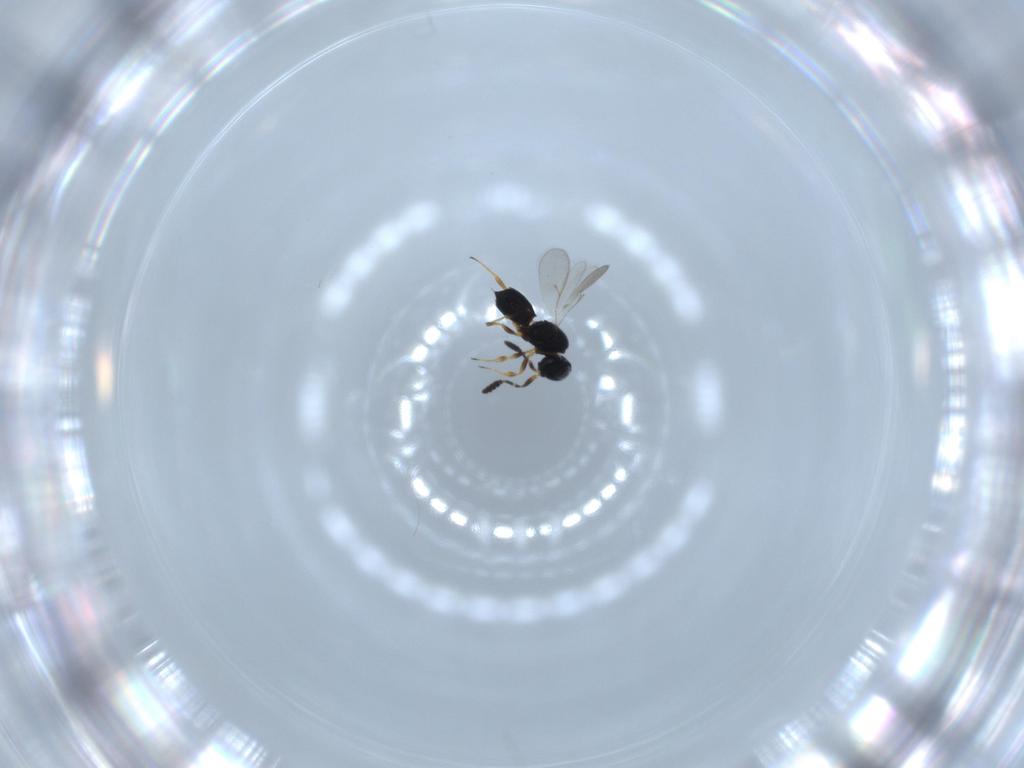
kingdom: Animalia
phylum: Arthropoda
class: Insecta
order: Hymenoptera
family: Scelionidae
